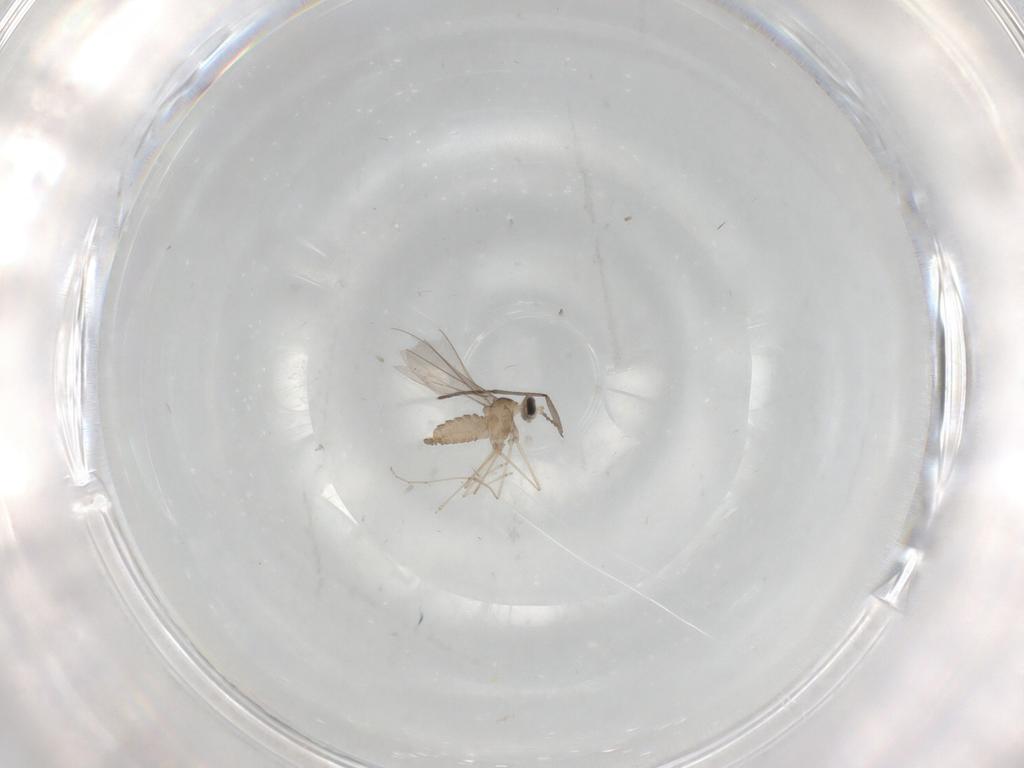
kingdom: Animalia
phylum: Arthropoda
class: Insecta
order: Diptera
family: Cecidomyiidae
